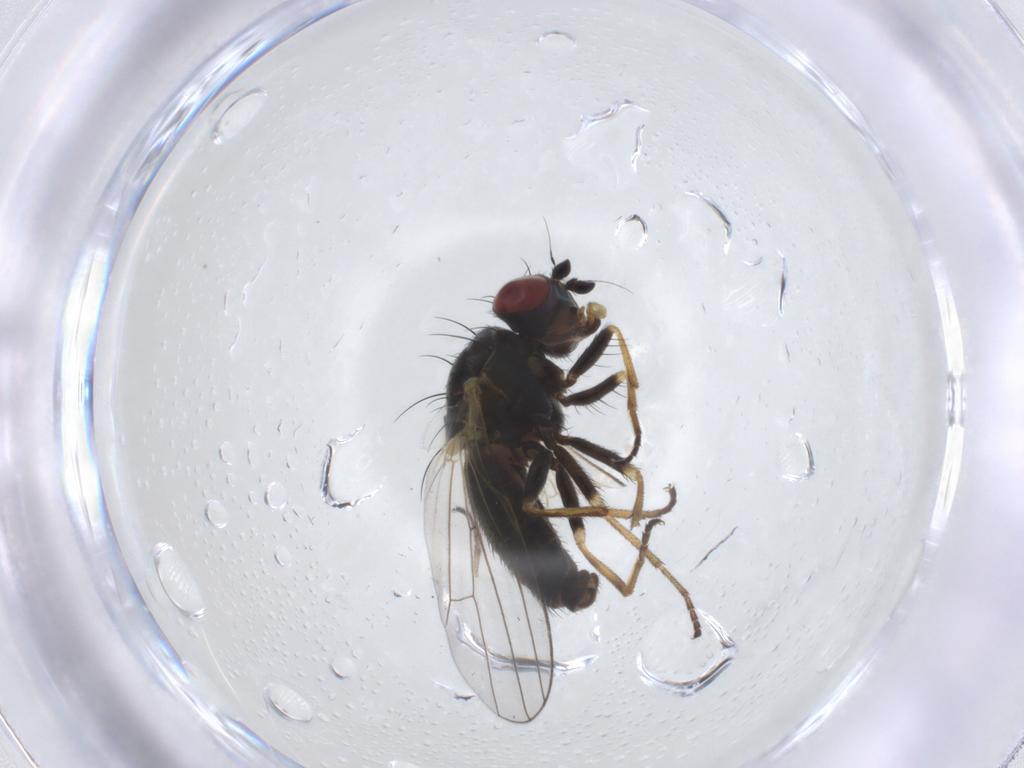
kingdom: Animalia
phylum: Arthropoda
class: Insecta
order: Diptera
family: Chamaemyiidae
